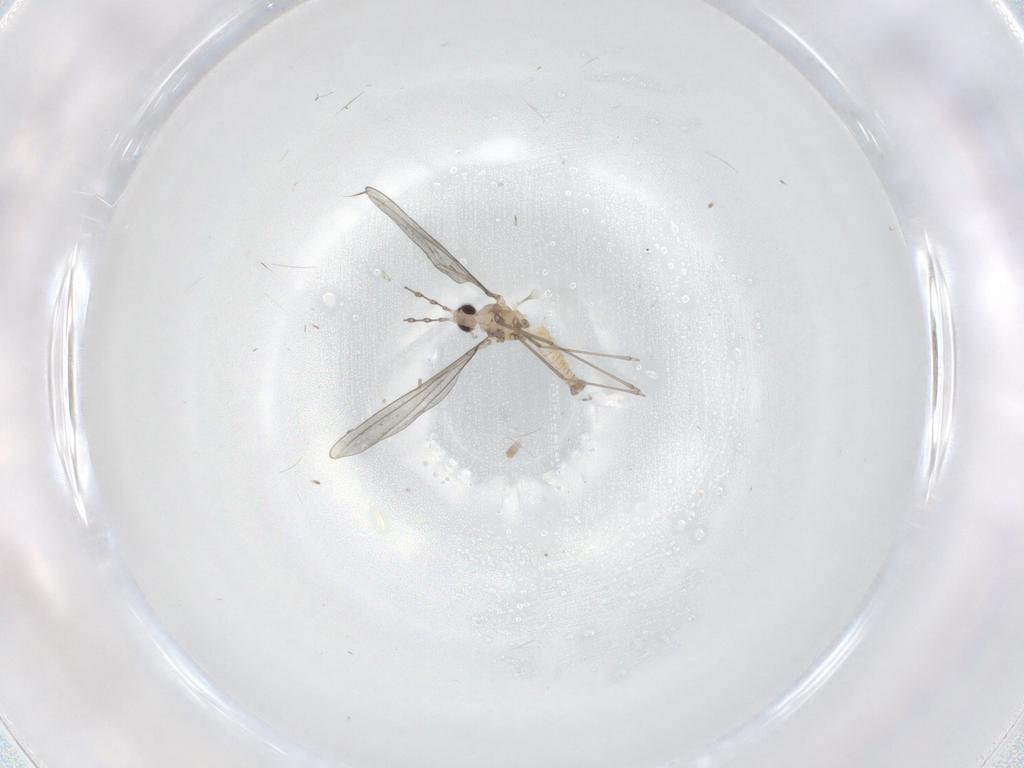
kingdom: Animalia
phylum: Arthropoda
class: Insecta
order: Diptera
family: Cecidomyiidae
